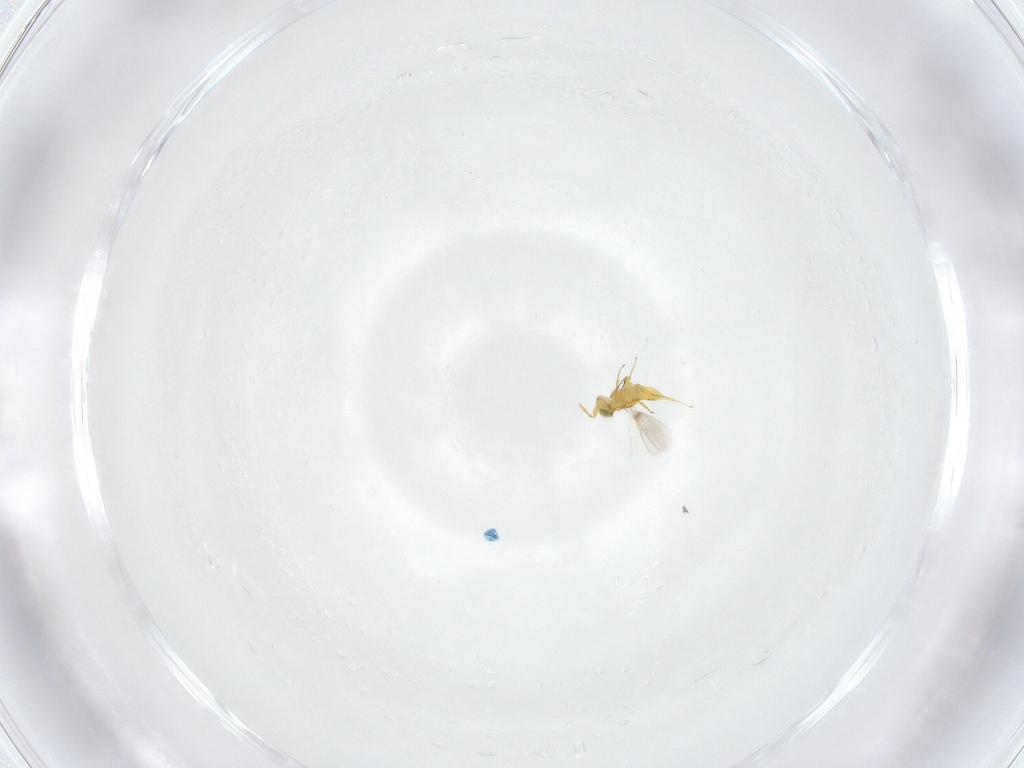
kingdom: Animalia
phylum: Arthropoda
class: Insecta
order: Hymenoptera
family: Aphelinidae
